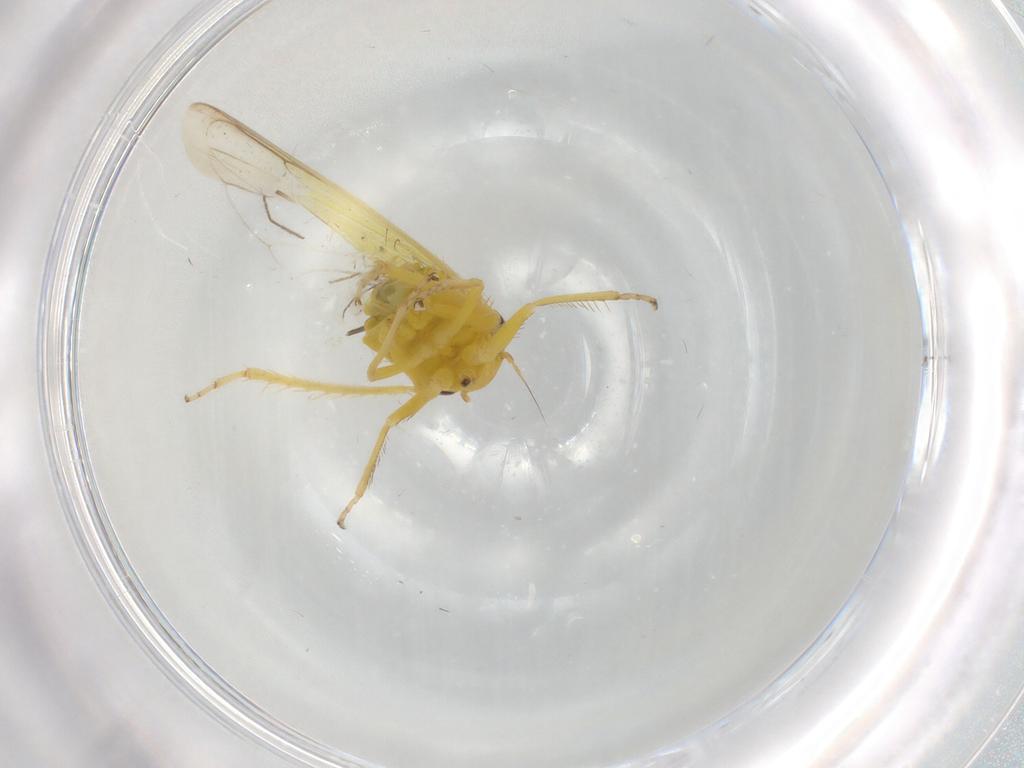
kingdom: Animalia
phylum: Arthropoda
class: Insecta
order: Hemiptera
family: Cicadellidae
